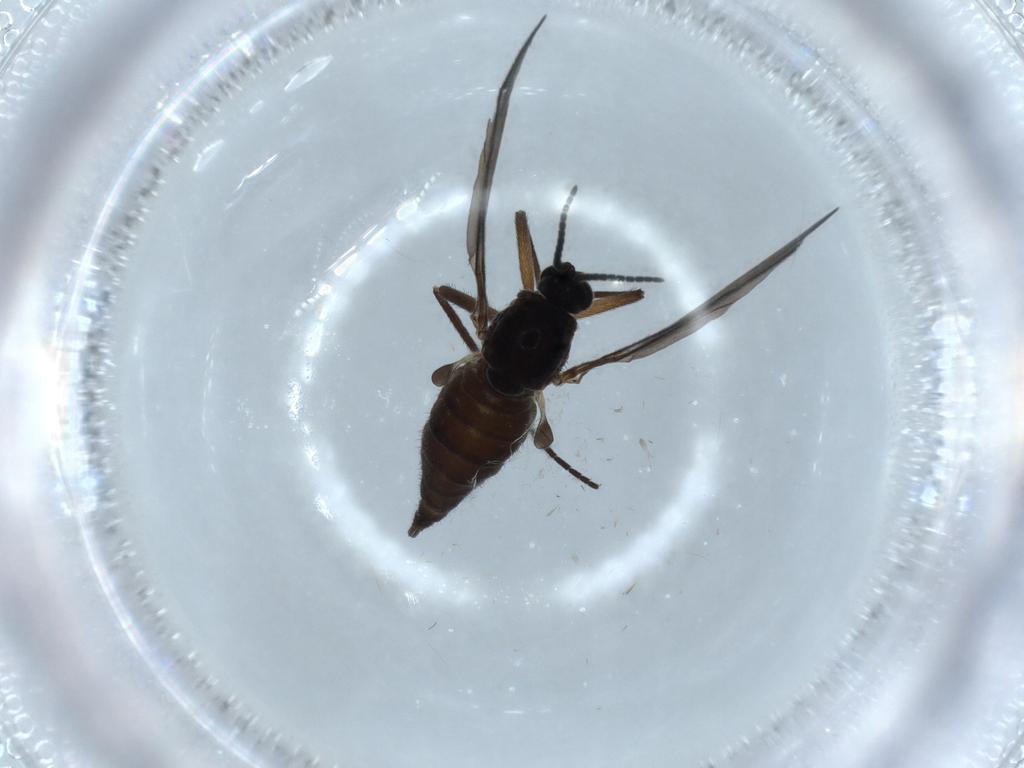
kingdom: Animalia
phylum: Arthropoda
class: Insecta
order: Diptera
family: Sciaridae
